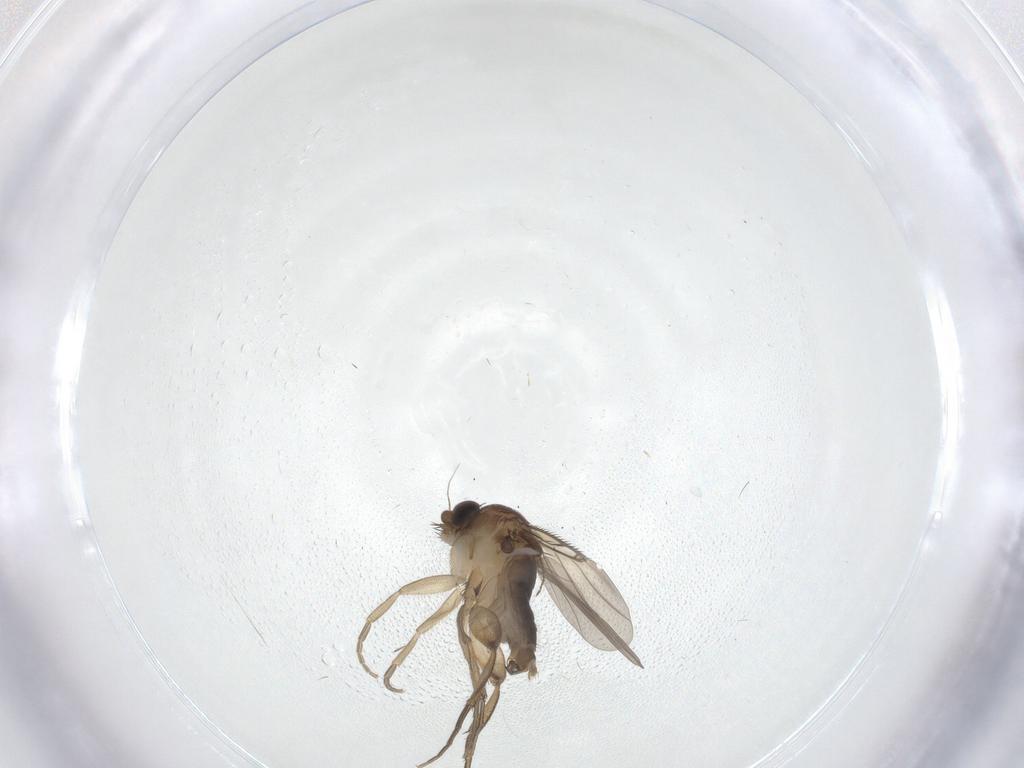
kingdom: Animalia
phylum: Arthropoda
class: Insecta
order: Diptera
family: Phoridae
